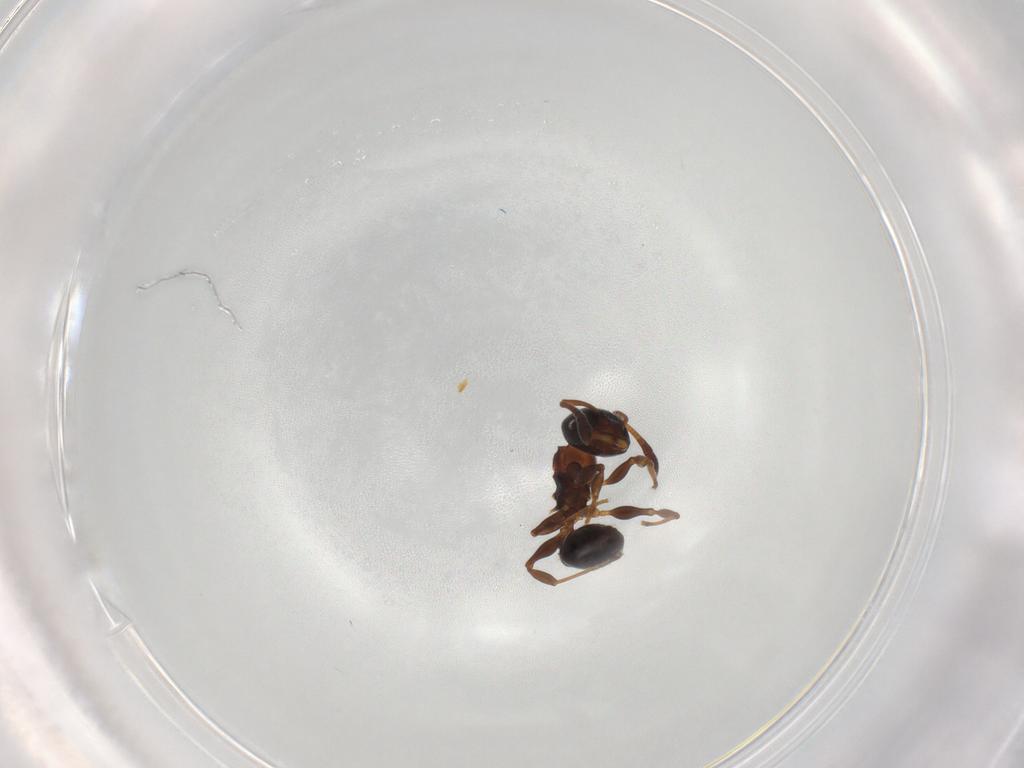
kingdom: Animalia
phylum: Arthropoda
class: Insecta
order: Hymenoptera
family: Formicidae
